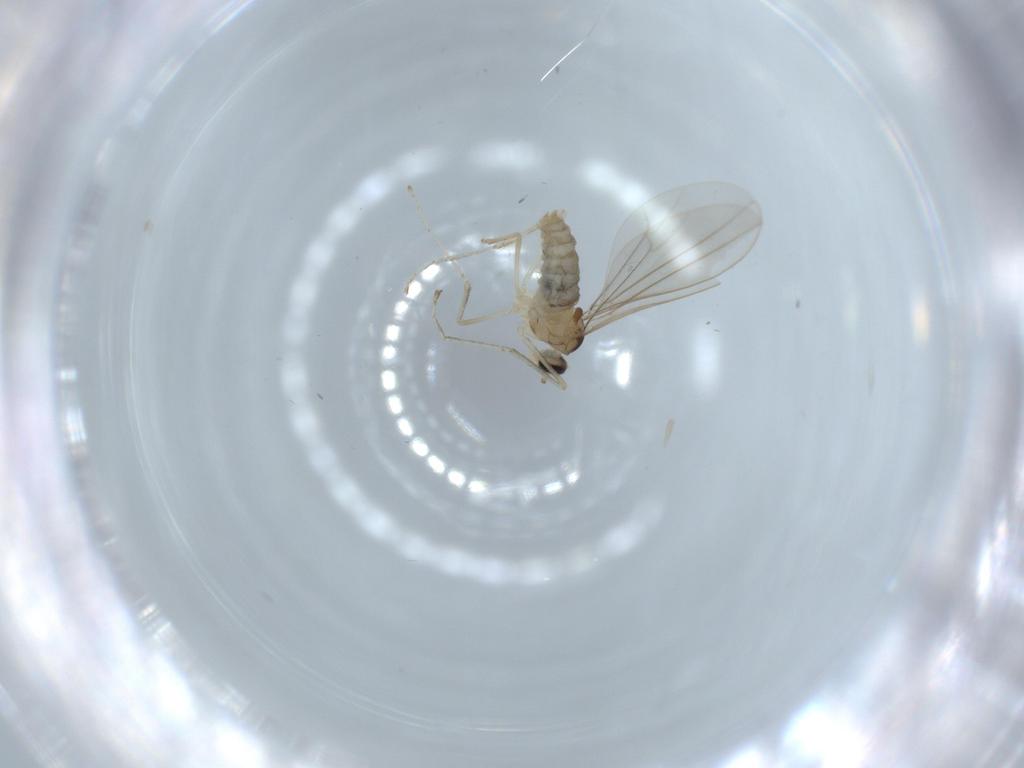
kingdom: Animalia
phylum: Arthropoda
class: Insecta
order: Diptera
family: Cecidomyiidae
